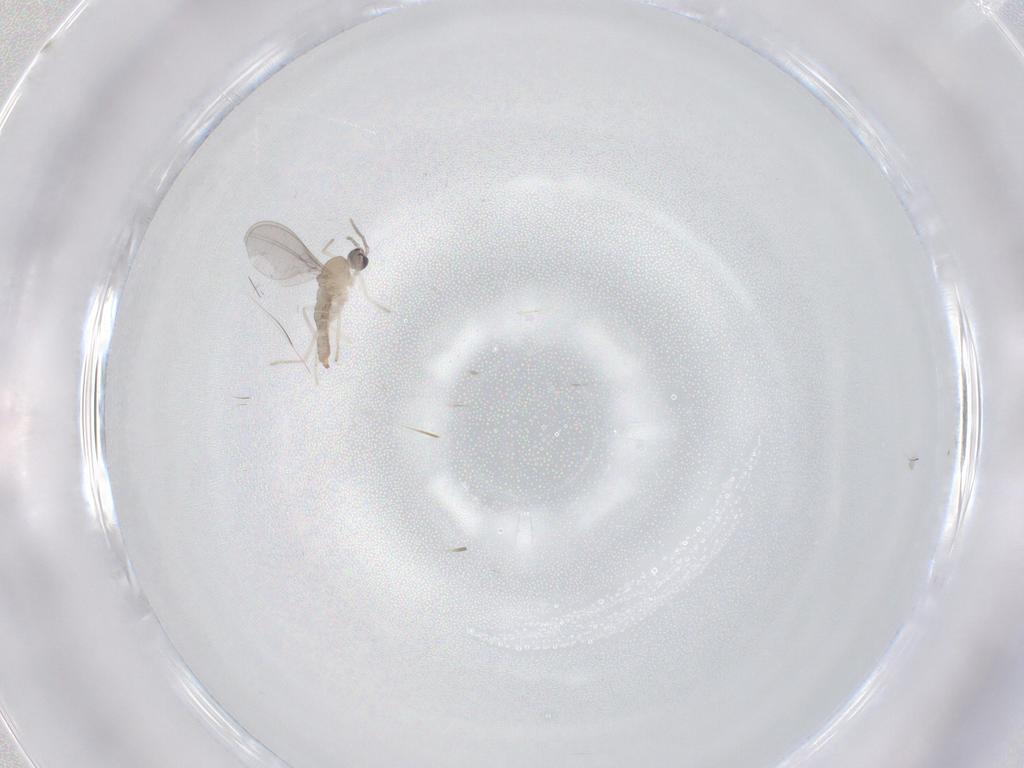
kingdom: Animalia
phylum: Arthropoda
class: Insecta
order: Diptera
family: Cecidomyiidae
